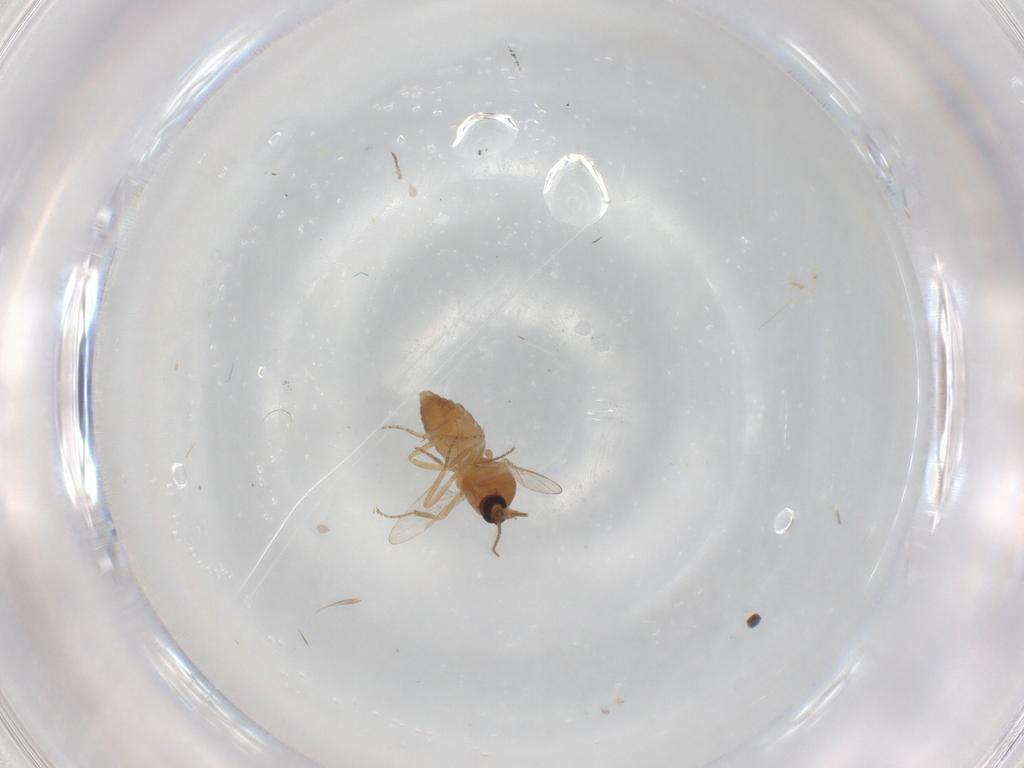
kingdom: Animalia
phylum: Arthropoda
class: Insecta
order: Diptera
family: Ceratopogonidae
